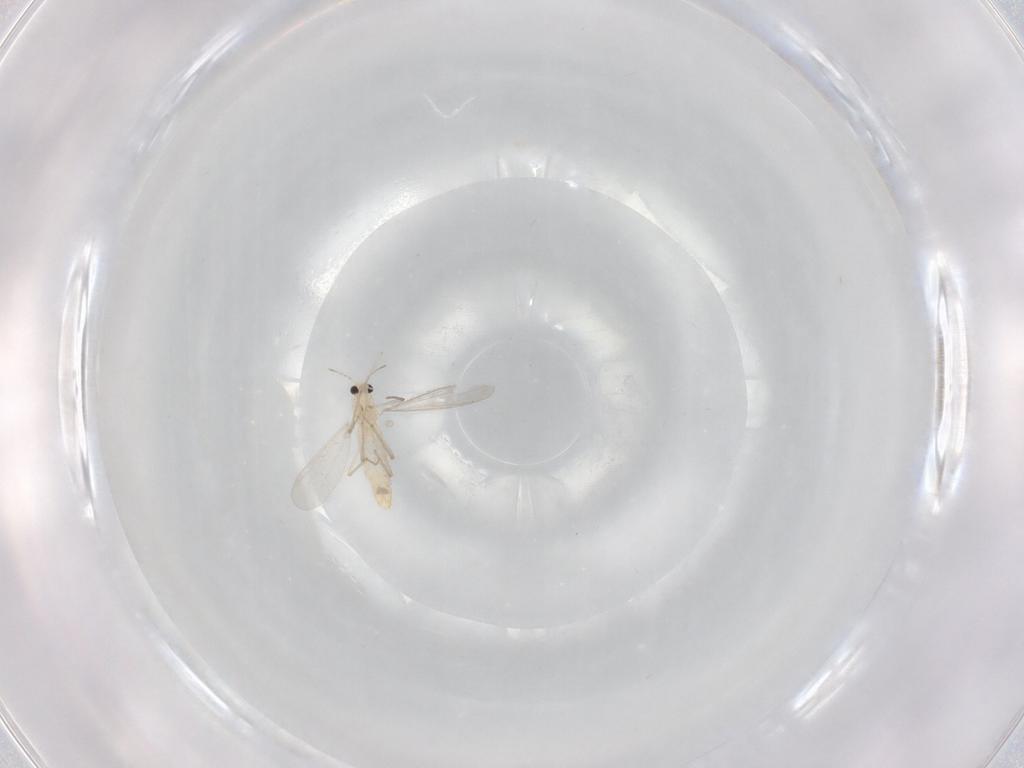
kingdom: Animalia
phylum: Arthropoda
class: Insecta
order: Diptera
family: Chironomidae
